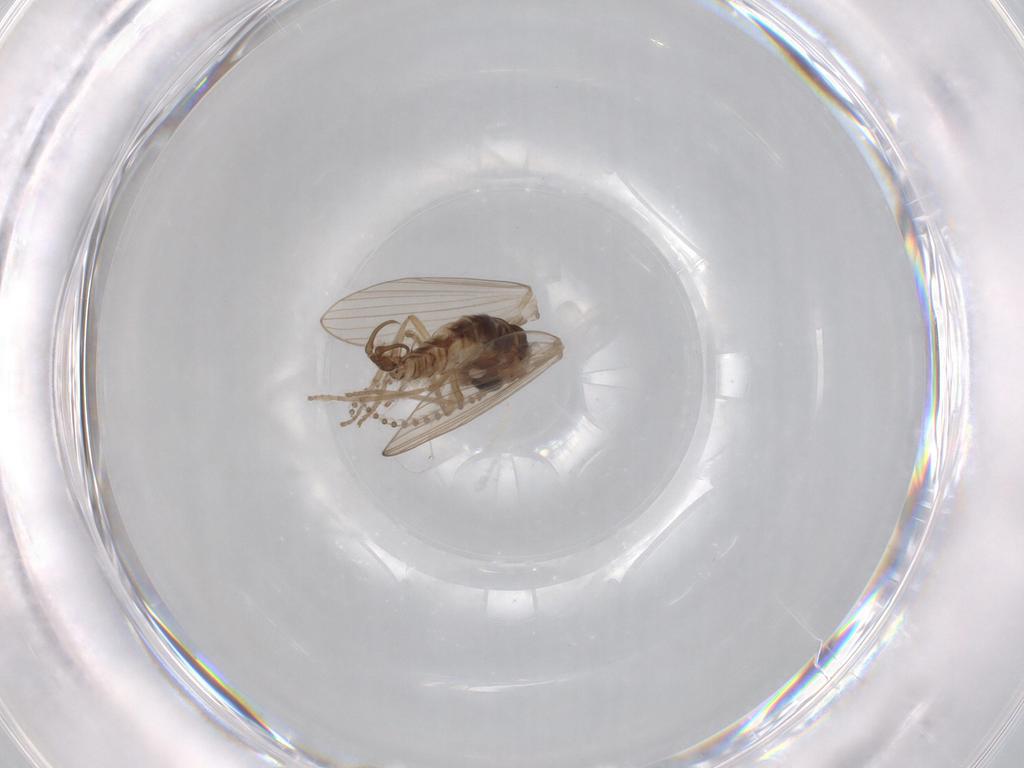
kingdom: Animalia
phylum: Arthropoda
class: Insecta
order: Diptera
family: Psychodidae
